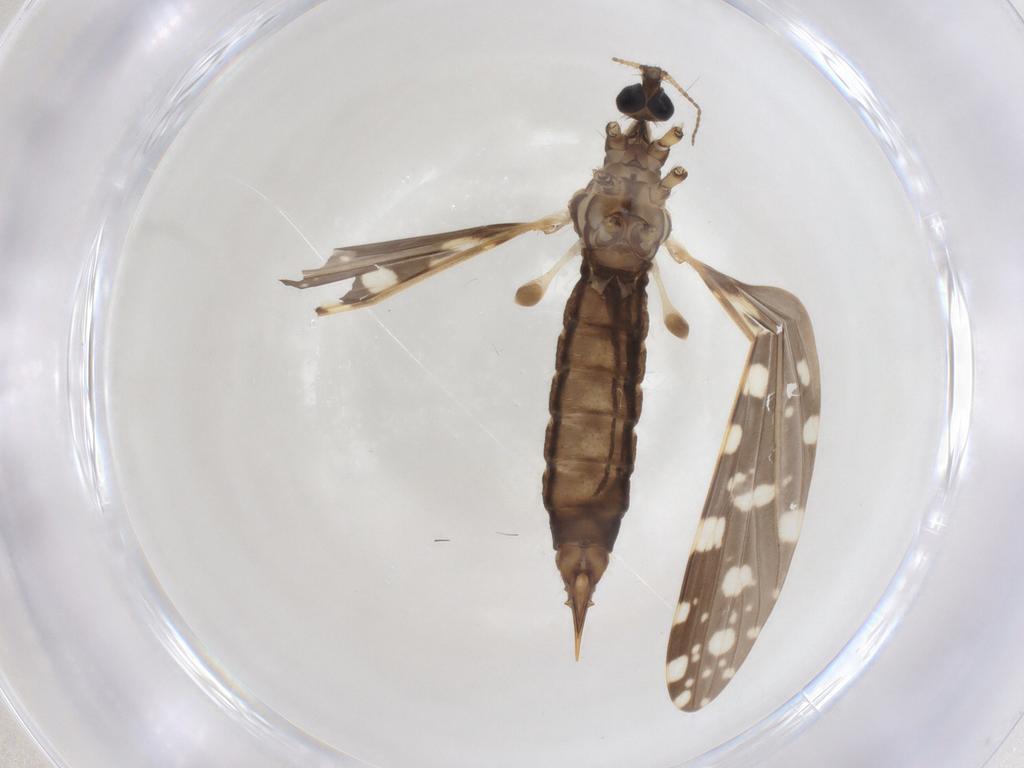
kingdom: Animalia
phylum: Arthropoda
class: Insecta
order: Diptera
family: Limoniidae
